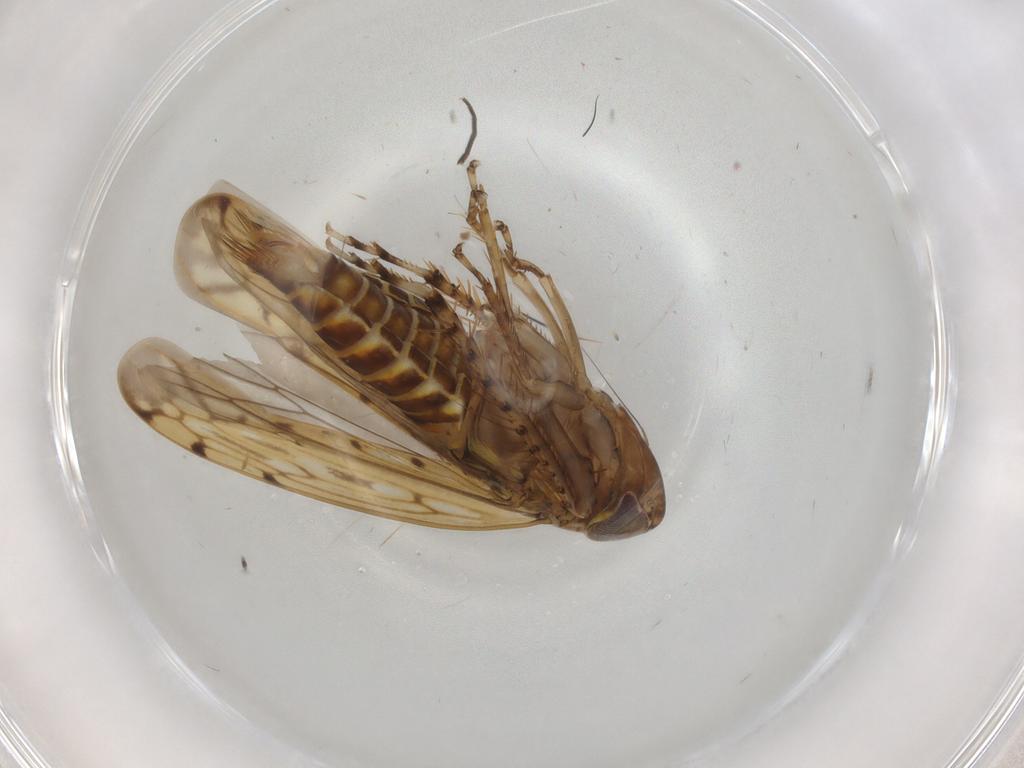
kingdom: Animalia
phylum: Arthropoda
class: Insecta
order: Hemiptera
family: Cicadellidae
